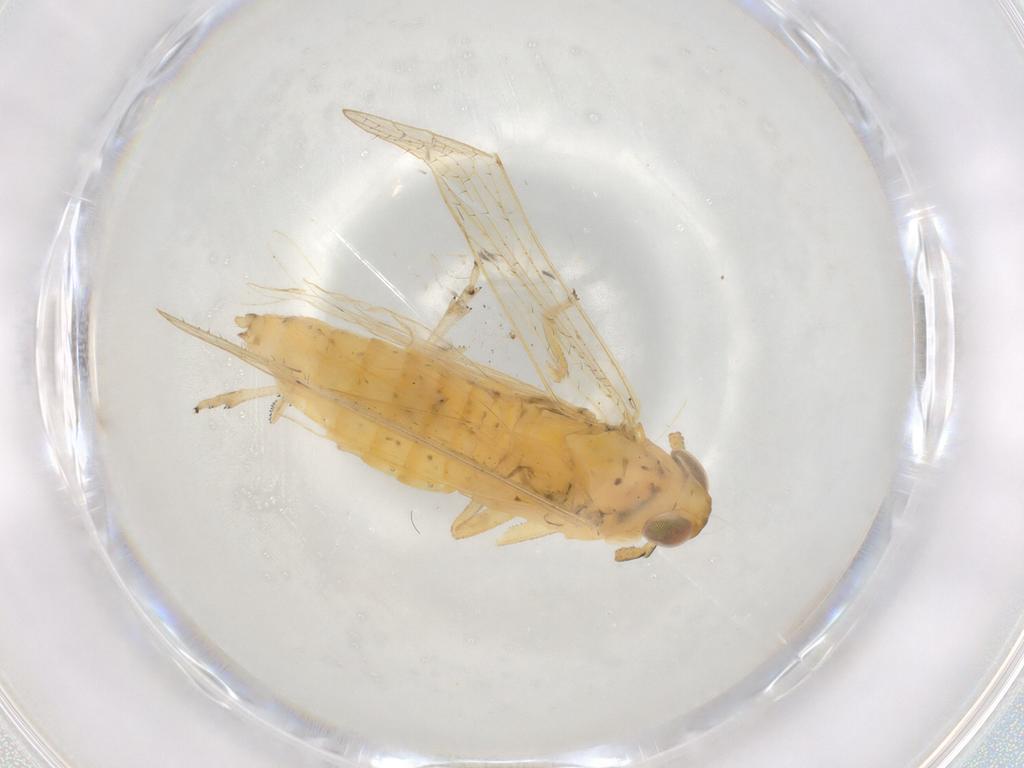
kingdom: Animalia
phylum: Arthropoda
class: Insecta
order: Hemiptera
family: Delphacidae
